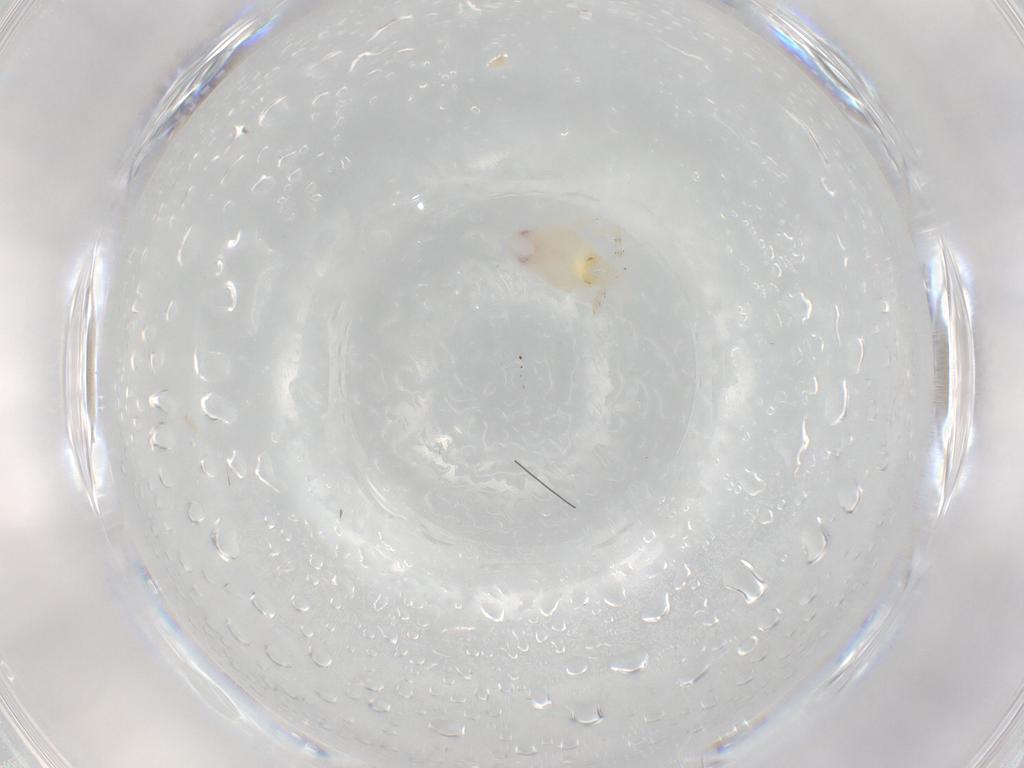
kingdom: Animalia
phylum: Arthropoda
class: Insecta
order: Hemiptera
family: Flatidae
